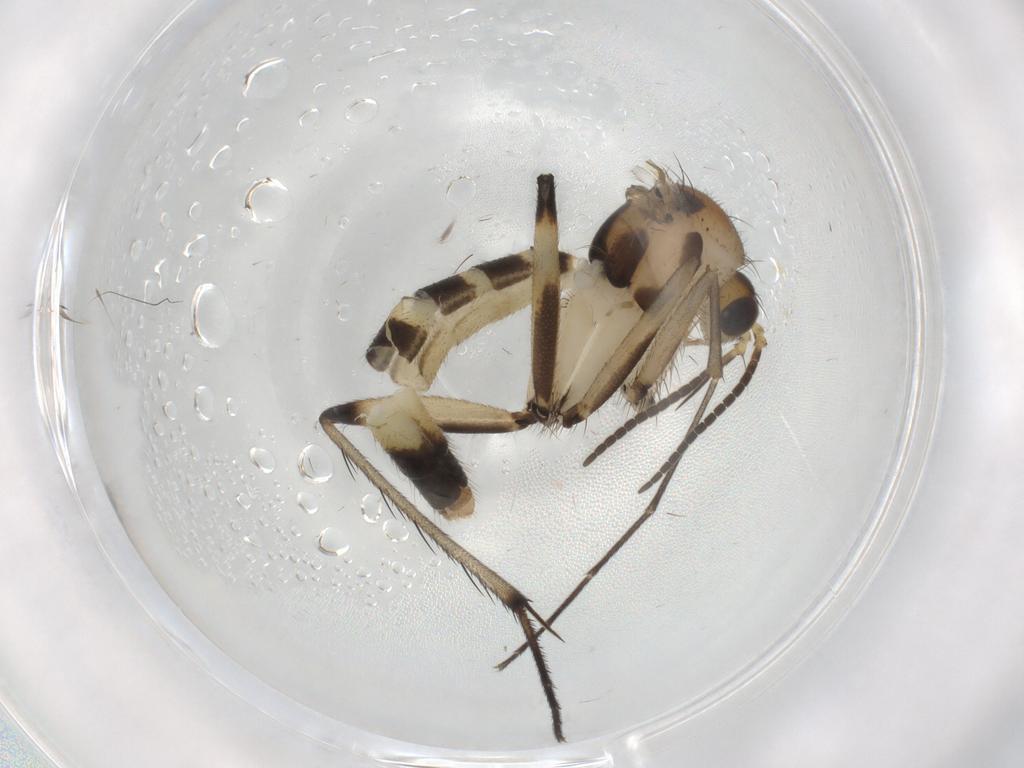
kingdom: Animalia
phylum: Arthropoda
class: Insecta
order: Diptera
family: Mycetophilidae
